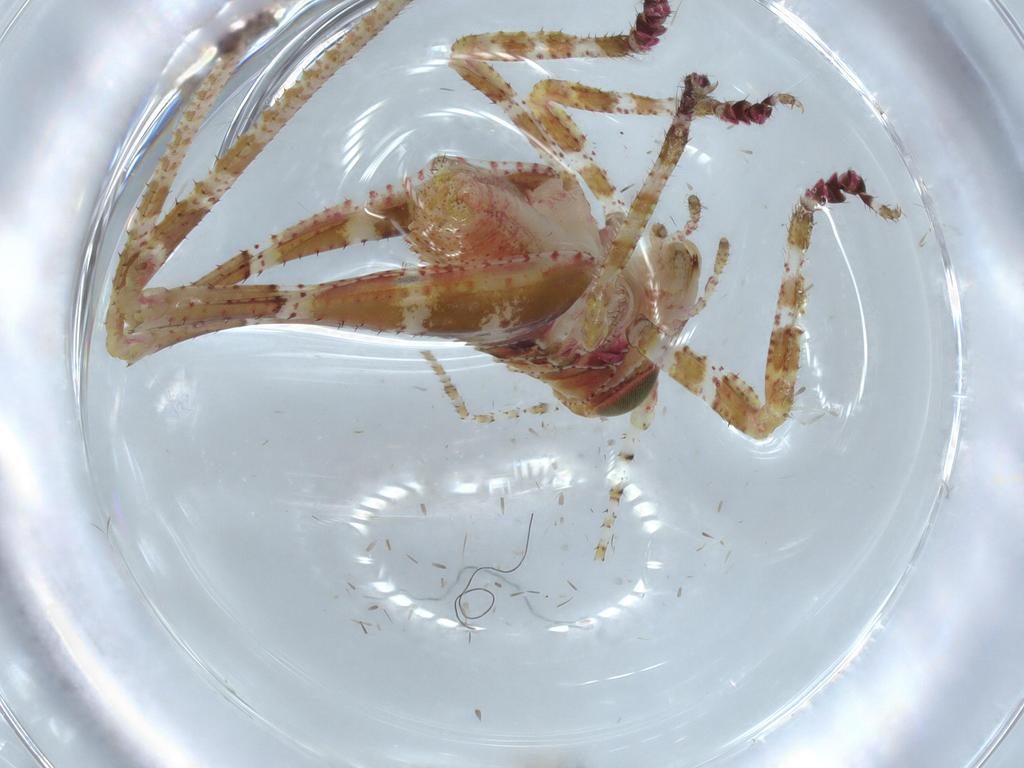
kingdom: Animalia
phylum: Arthropoda
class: Insecta
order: Orthoptera
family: Tettigoniidae
